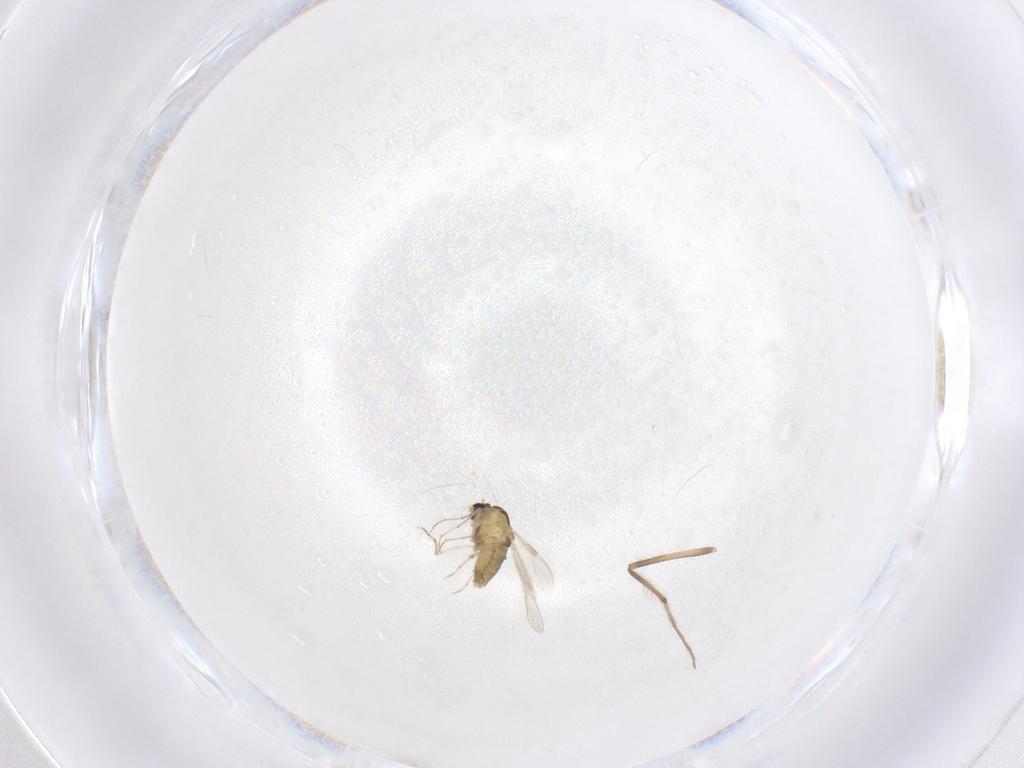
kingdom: Animalia
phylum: Arthropoda
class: Insecta
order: Diptera
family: Chironomidae
